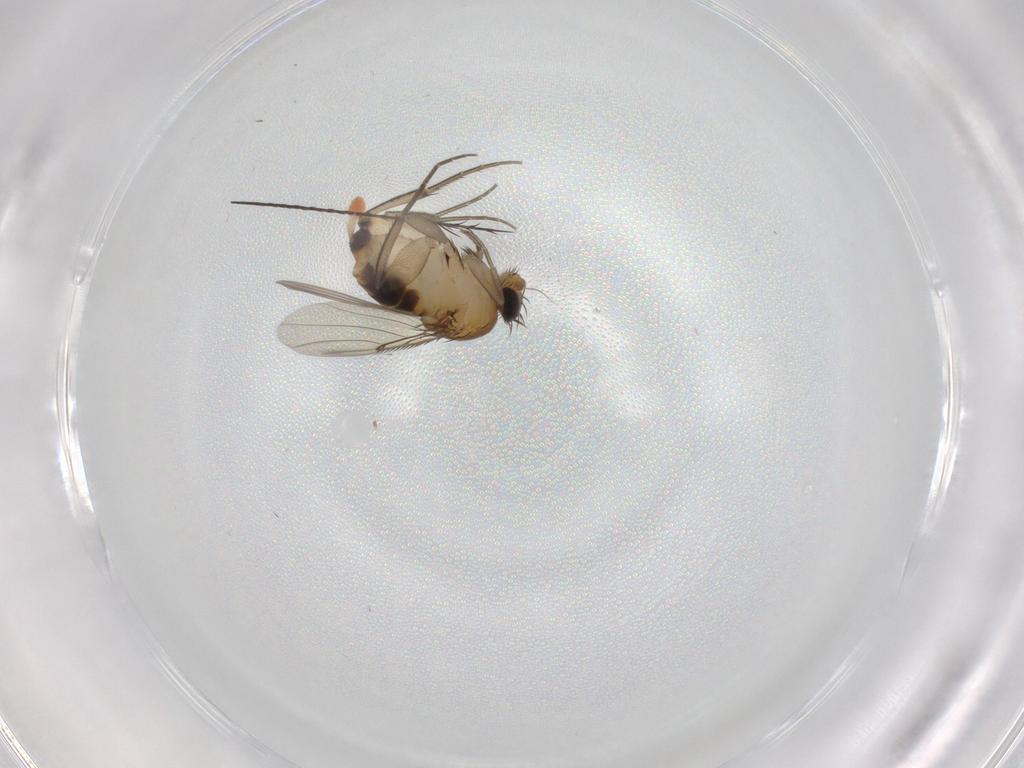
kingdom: Animalia
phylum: Arthropoda
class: Insecta
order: Diptera
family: Phoridae
